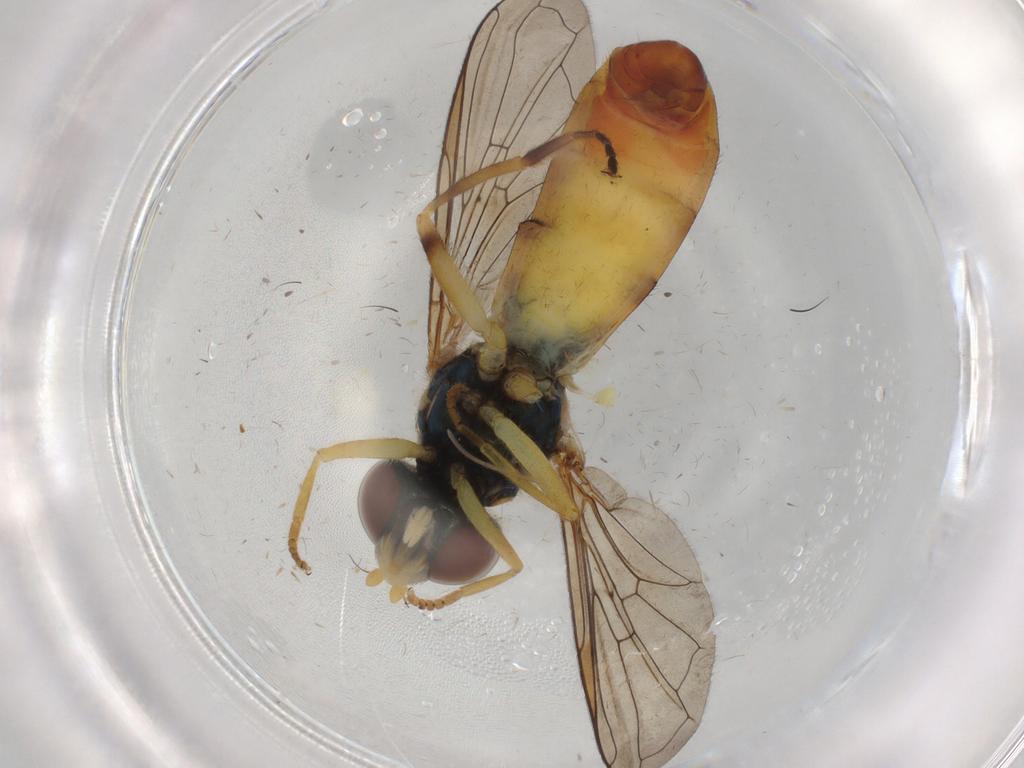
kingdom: Animalia
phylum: Arthropoda
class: Insecta
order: Diptera
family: Syrphidae
